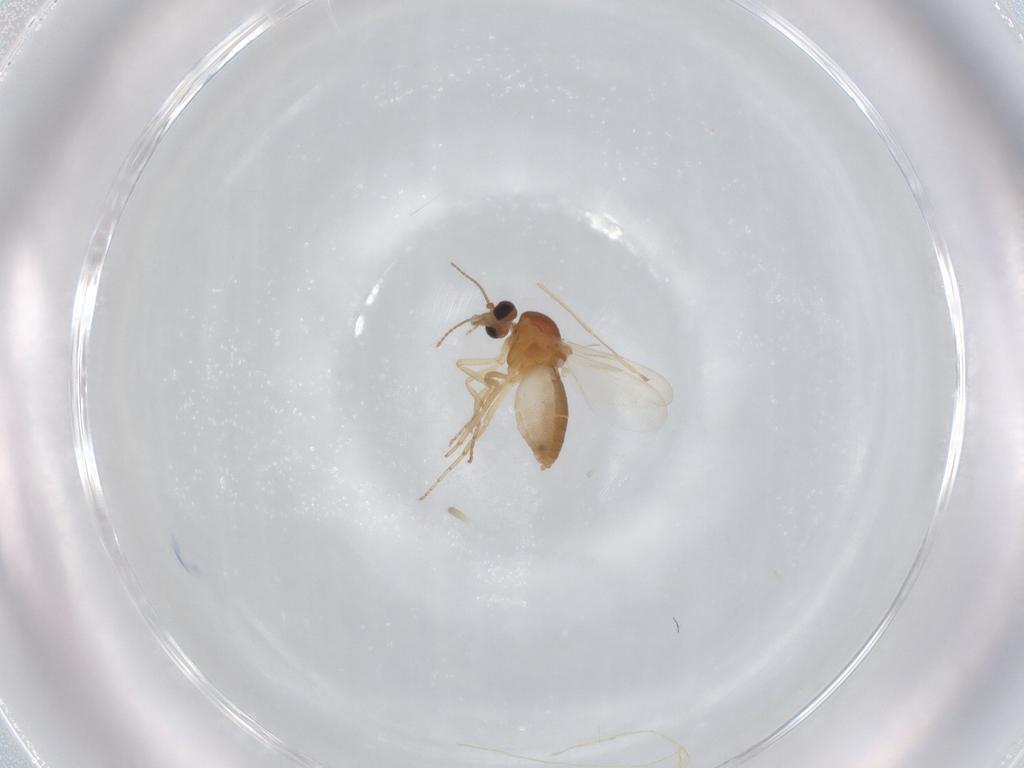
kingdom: Animalia
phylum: Arthropoda
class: Insecta
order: Diptera
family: Cecidomyiidae
